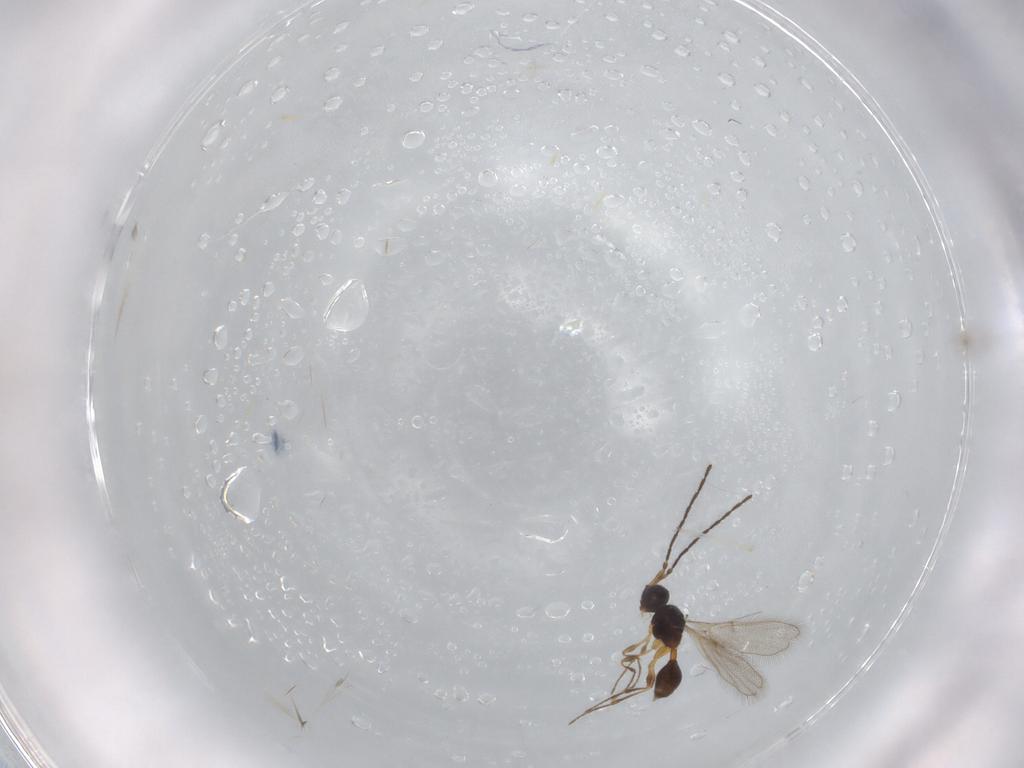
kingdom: Animalia
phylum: Arthropoda
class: Insecta
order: Hymenoptera
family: Diapriidae
